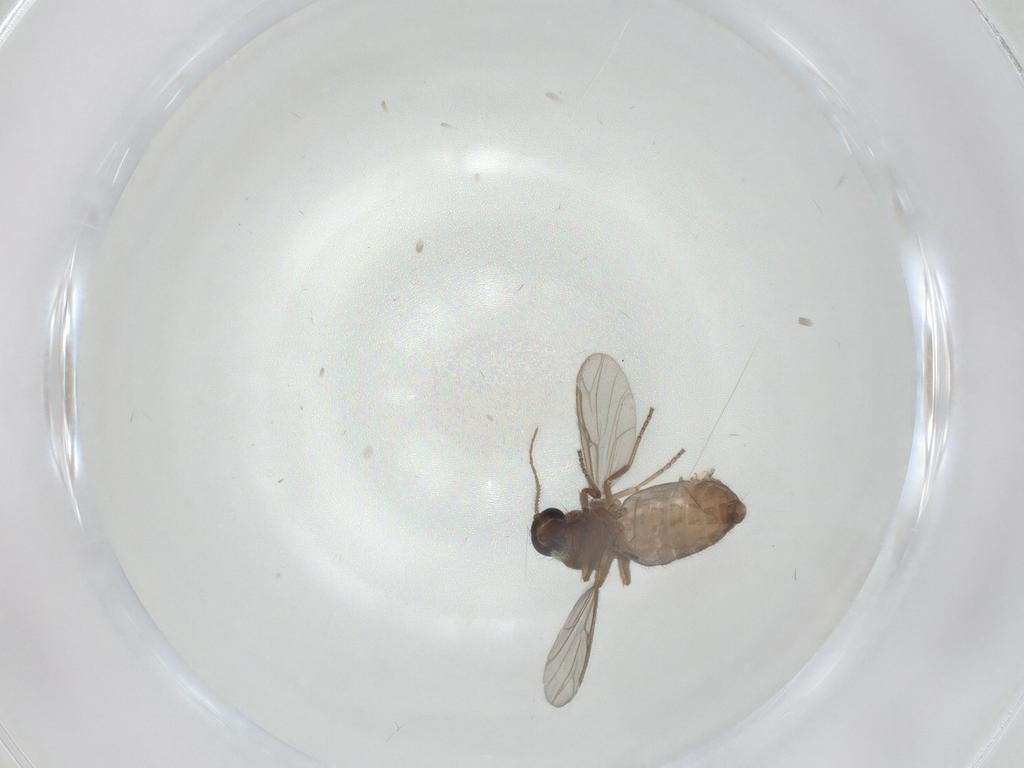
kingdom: Animalia
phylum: Arthropoda
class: Insecta
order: Diptera
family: Ceratopogonidae
